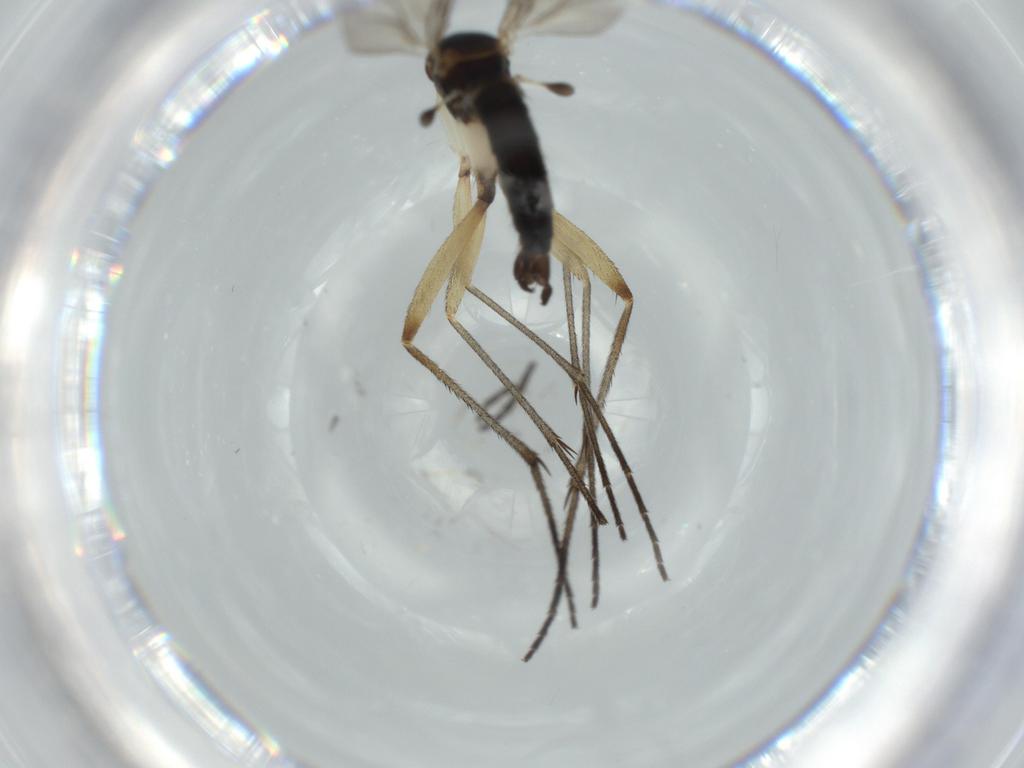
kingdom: Animalia
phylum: Arthropoda
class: Insecta
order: Diptera
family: Sciaridae
